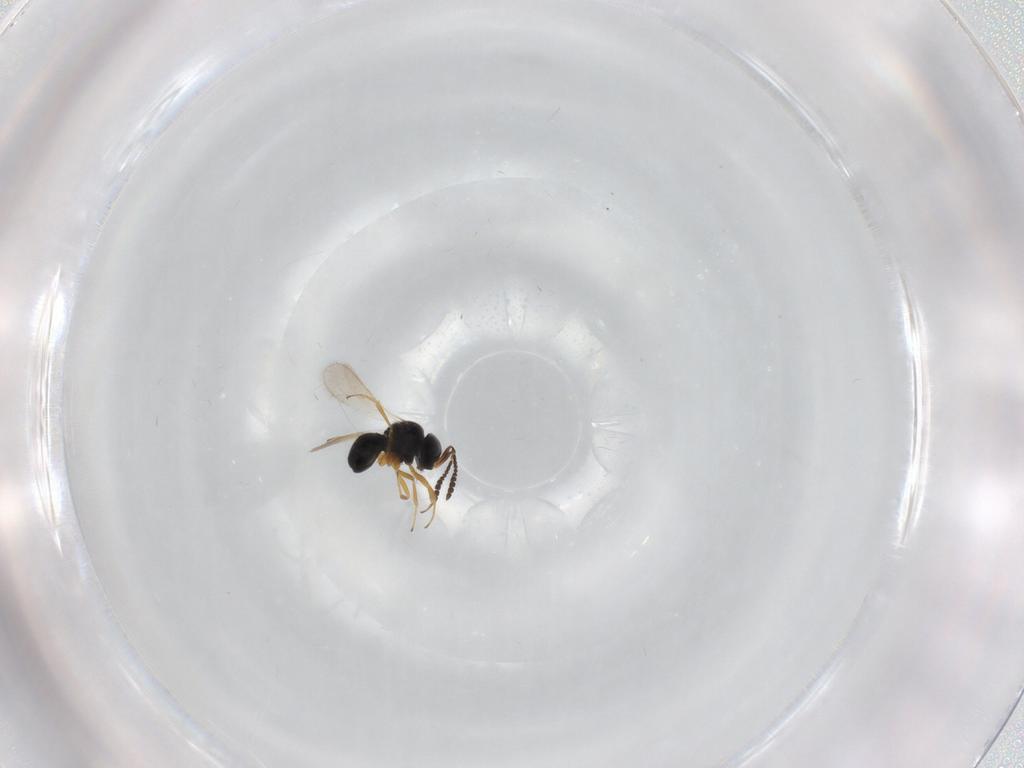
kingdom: Animalia
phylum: Arthropoda
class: Insecta
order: Hymenoptera
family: Scelionidae
